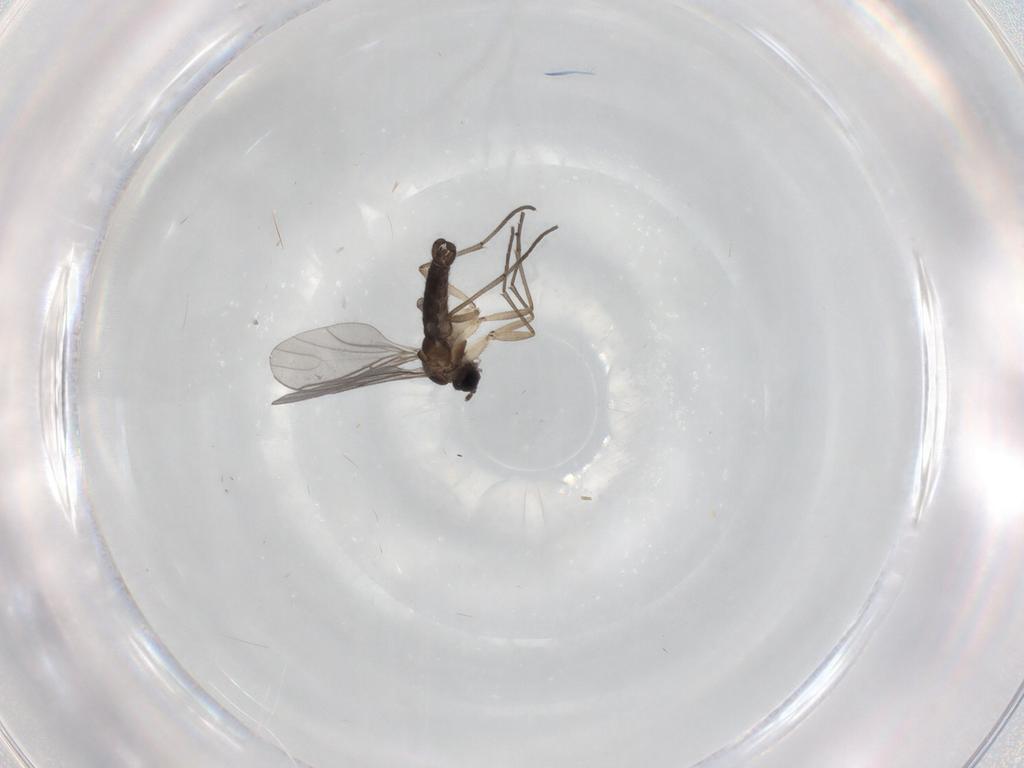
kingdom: Animalia
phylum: Arthropoda
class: Insecta
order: Diptera
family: Sciaridae
